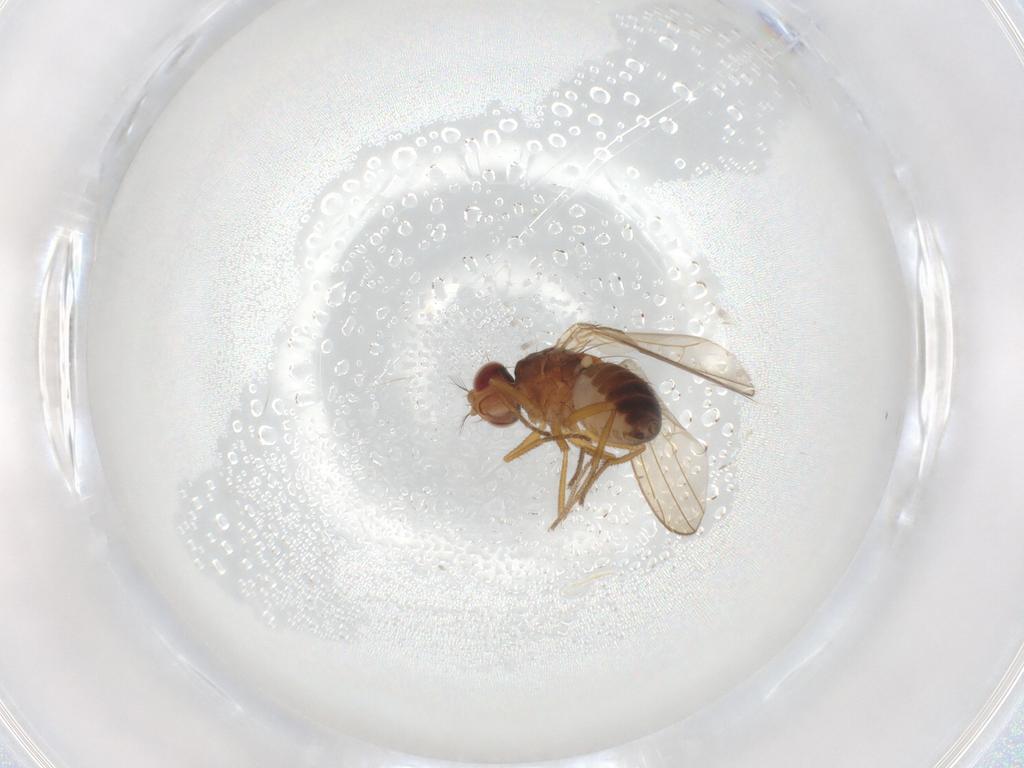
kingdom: Animalia
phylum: Arthropoda
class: Insecta
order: Diptera
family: Drosophilidae
